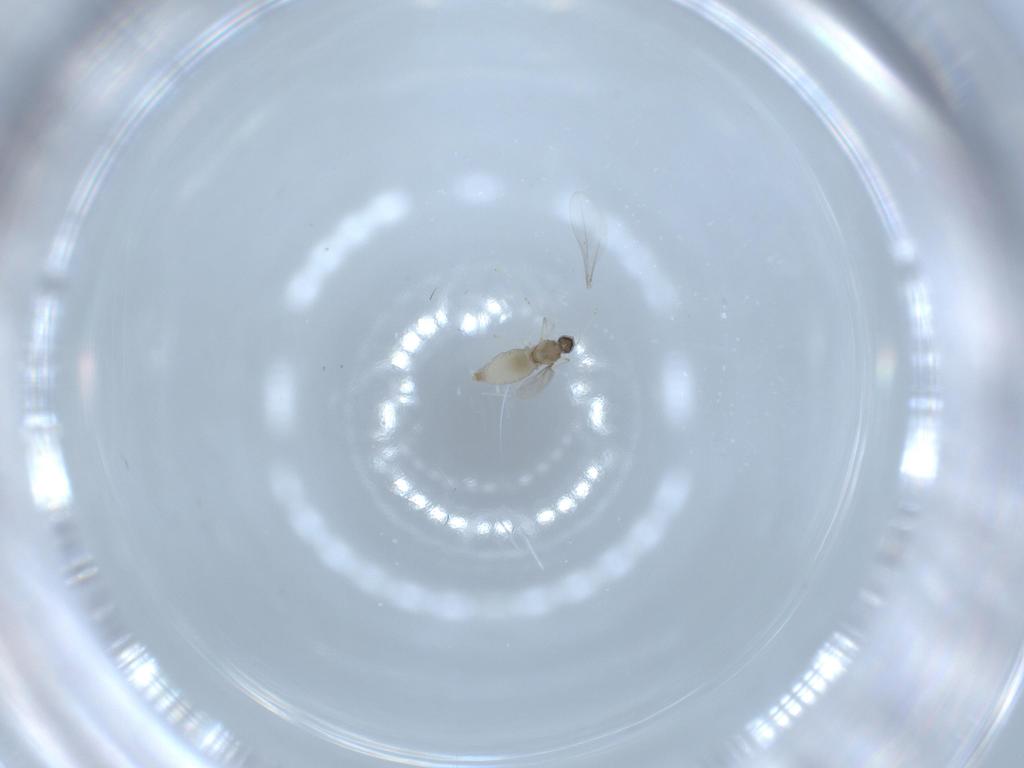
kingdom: Animalia
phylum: Arthropoda
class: Insecta
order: Diptera
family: Cecidomyiidae
